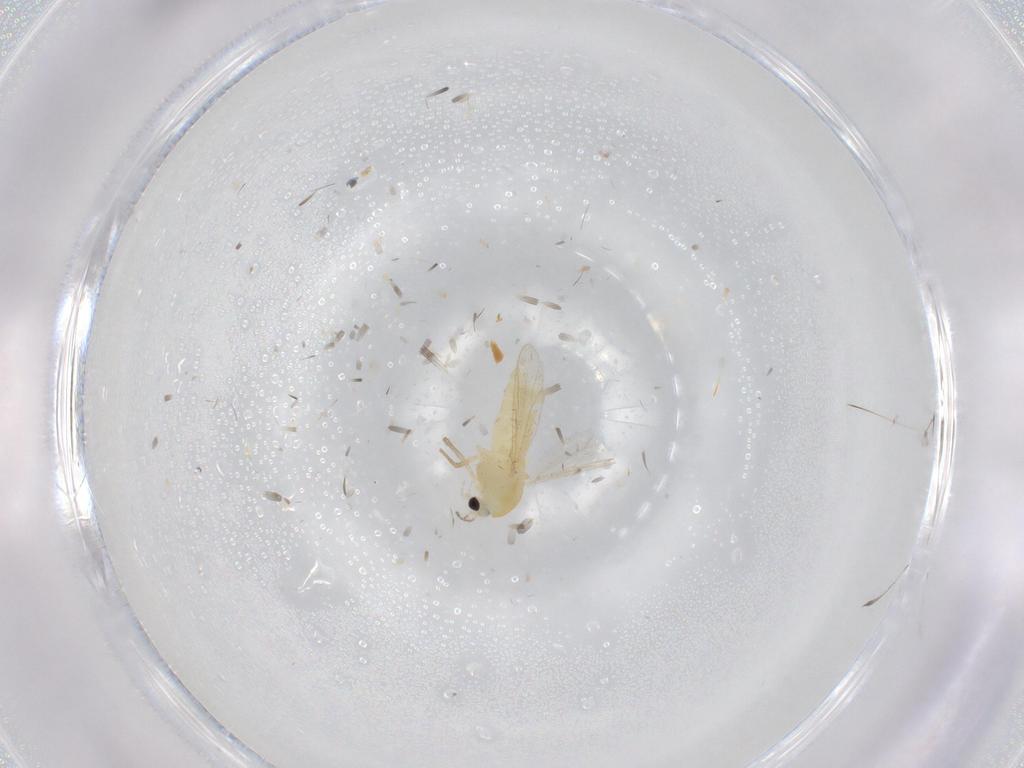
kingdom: Animalia
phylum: Arthropoda
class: Insecta
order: Diptera
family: Chironomidae
